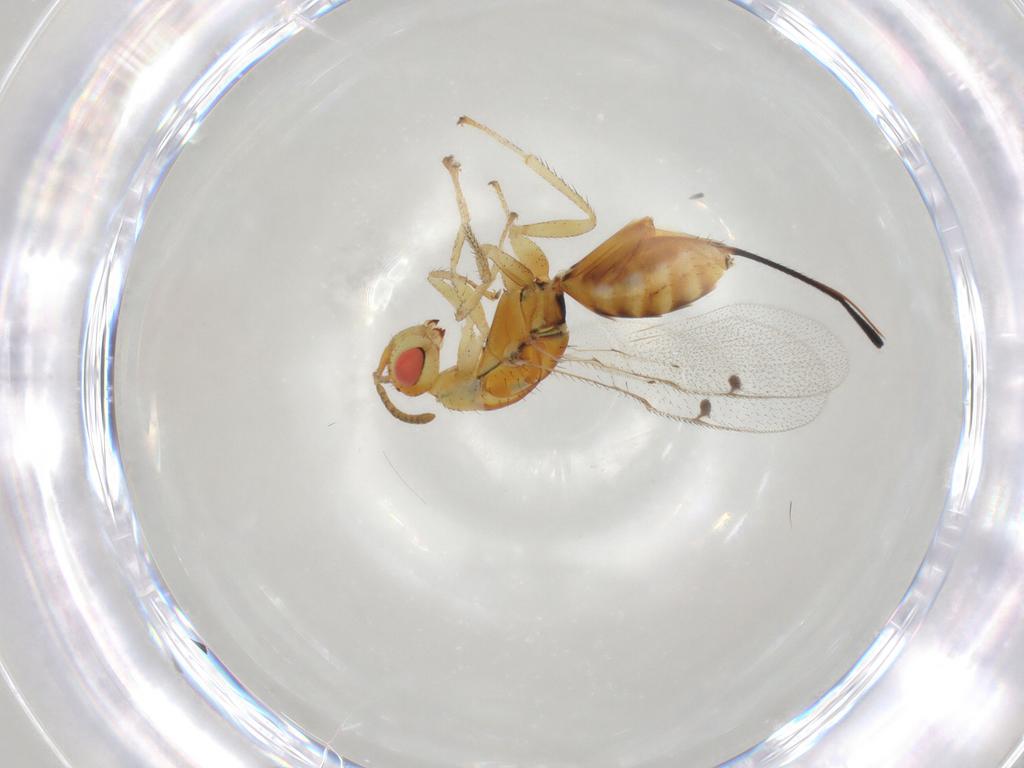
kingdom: Animalia
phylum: Arthropoda
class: Insecta
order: Hymenoptera
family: Megastigmidae
